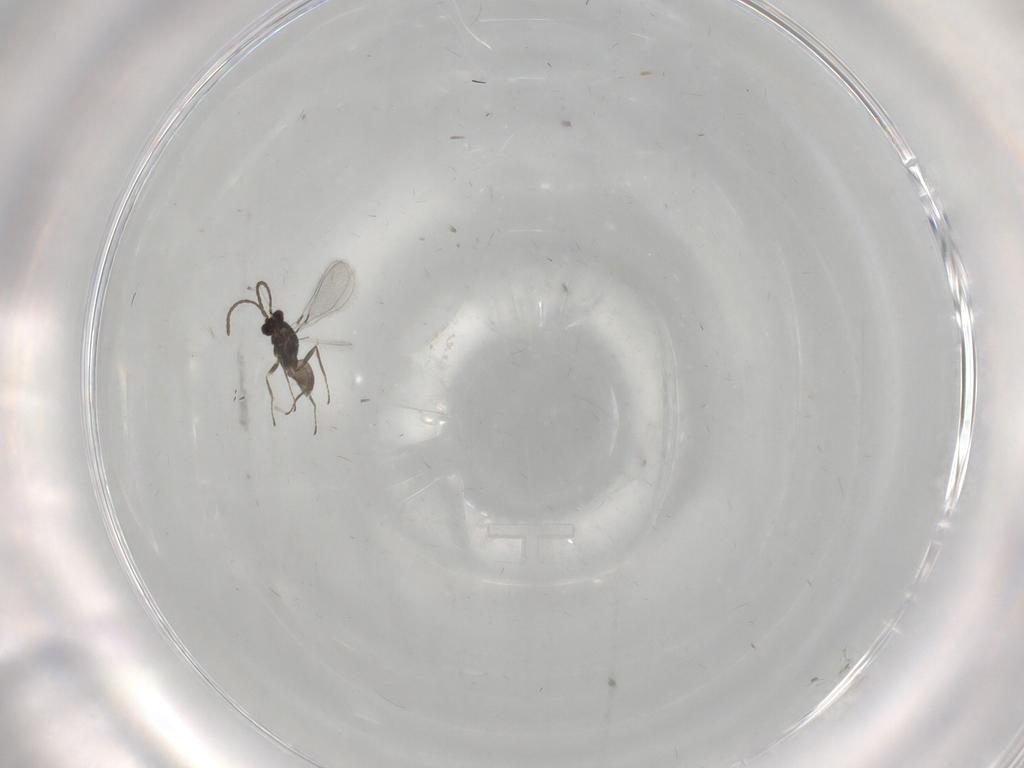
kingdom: Animalia
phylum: Arthropoda
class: Insecta
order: Hymenoptera
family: Mymaridae
